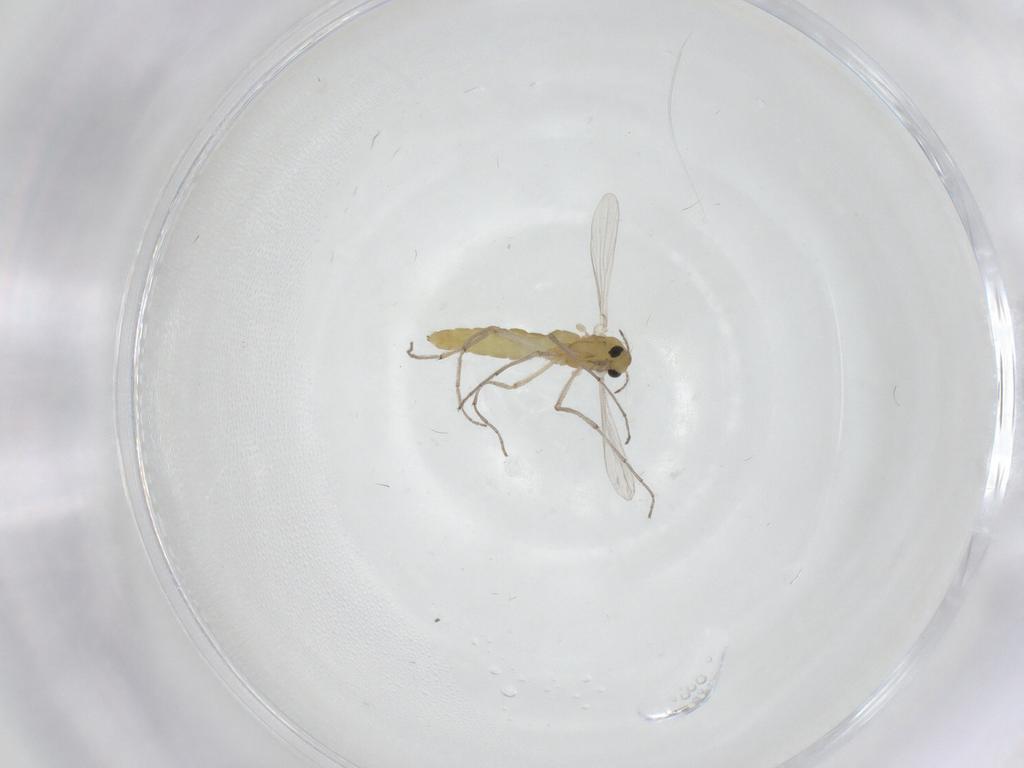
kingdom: Animalia
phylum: Arthropoda
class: Insecta
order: Diptera
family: Chironomidae
